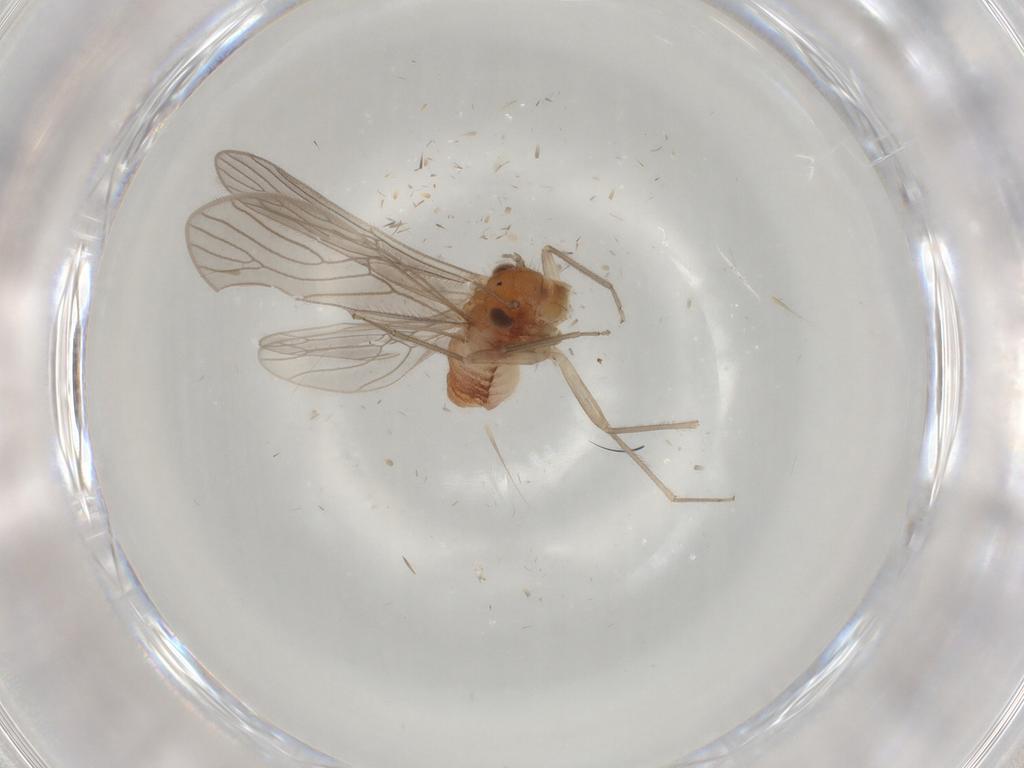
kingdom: Animalia
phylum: Arthropoda
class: Insecta
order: Psocodea
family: Epipsocidae
